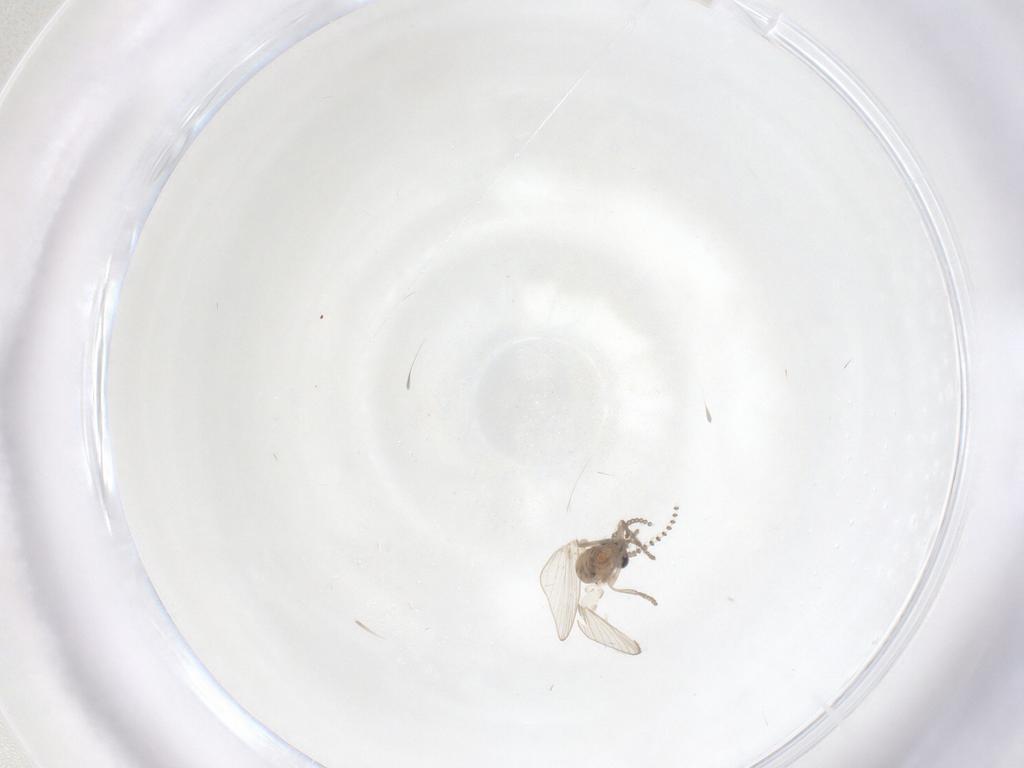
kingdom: Animalia
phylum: Arthropoda
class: Insecta
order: Diptera
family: Psychodidae
